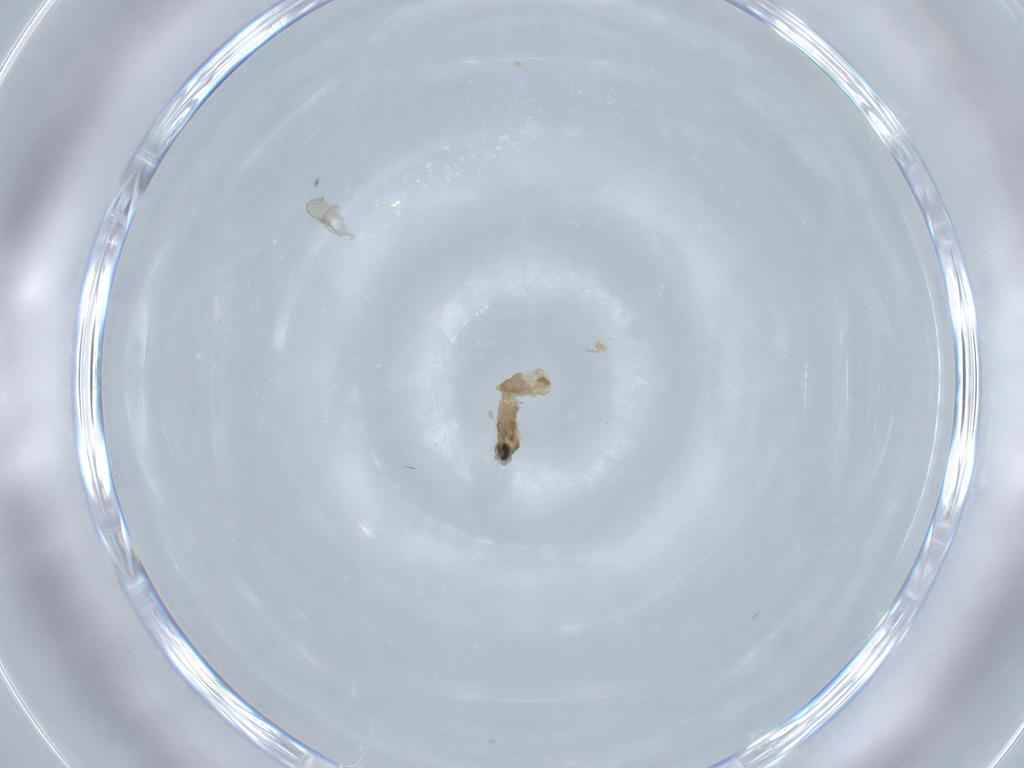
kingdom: Animalia
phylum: Arthropoda
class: Insecta
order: Diptera
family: Cecidomyiidae
